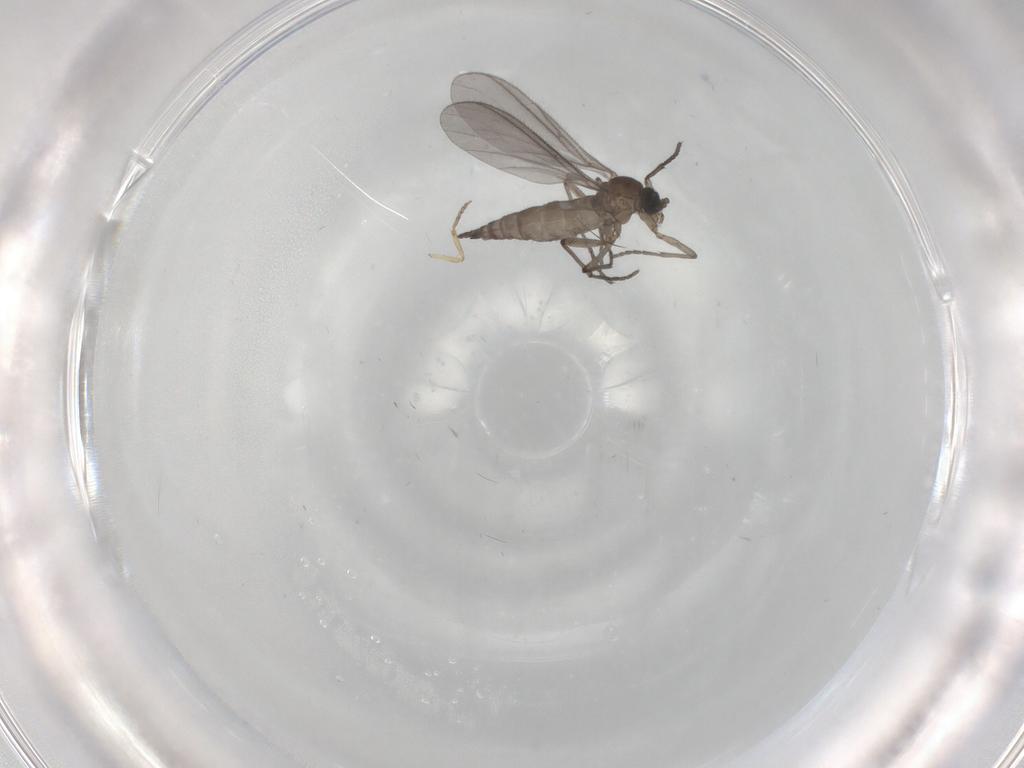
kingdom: Animalia
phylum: Arthropoda
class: Insecta
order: Diptera
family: Sciaridae
